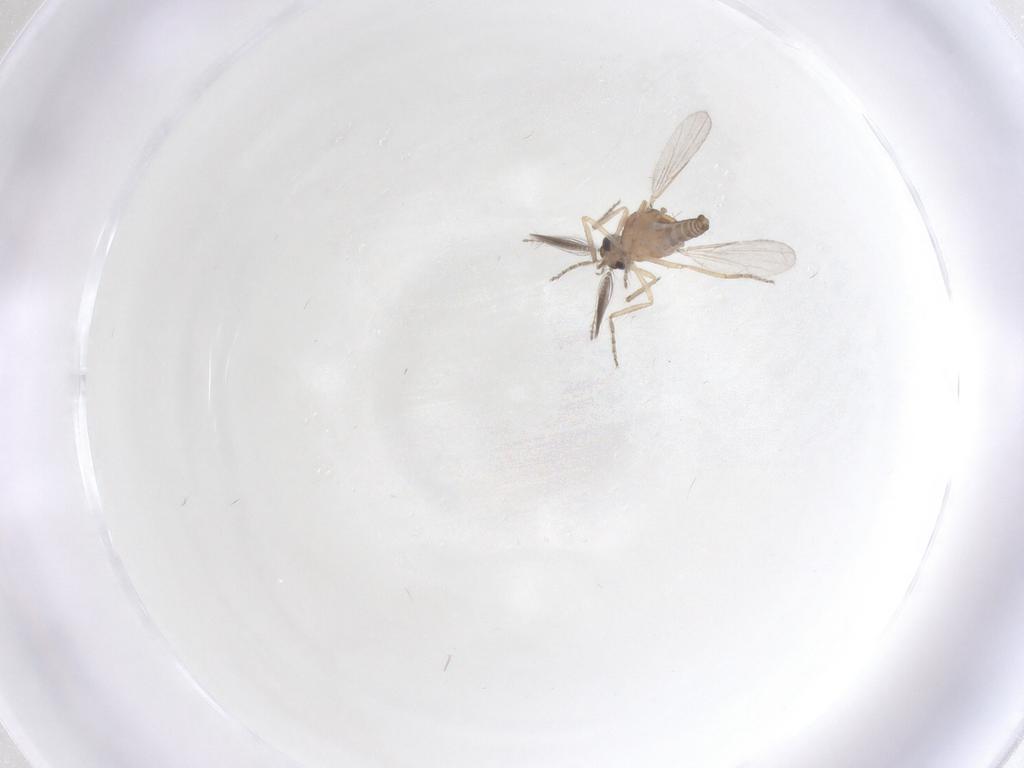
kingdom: Animalia
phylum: Arthropoda
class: Insecta
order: Diptera
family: Ceratopogonidae
